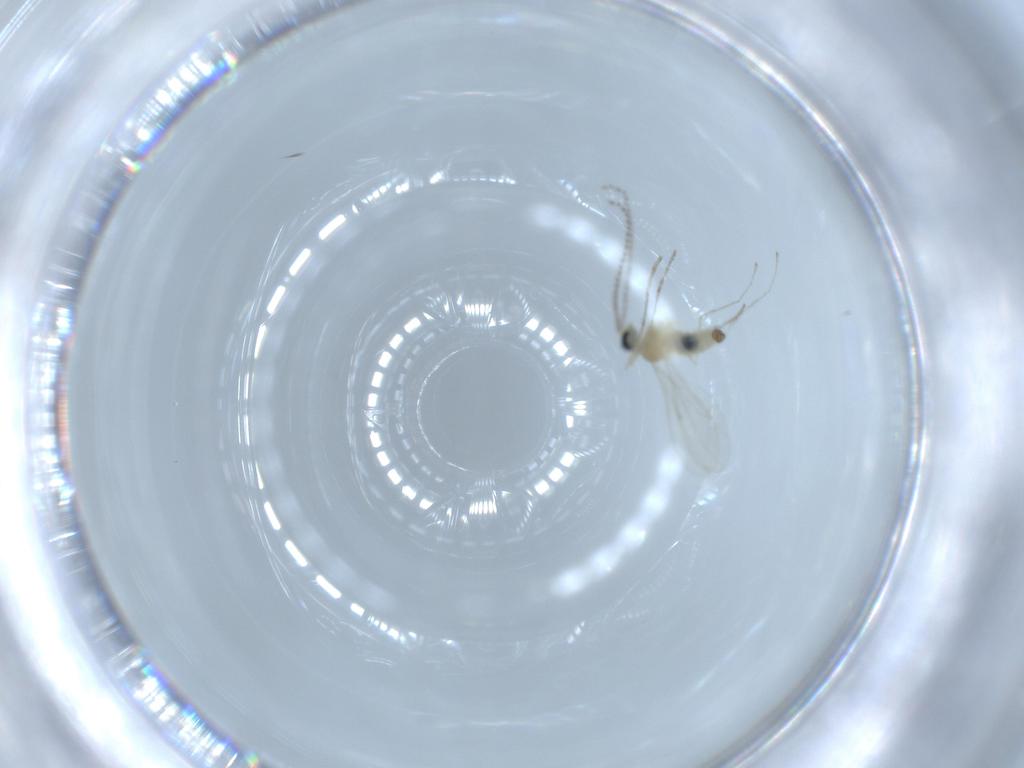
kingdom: Animalia
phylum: Arthropoda
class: Insecta
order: Diptera
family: Cecidomyiidae
